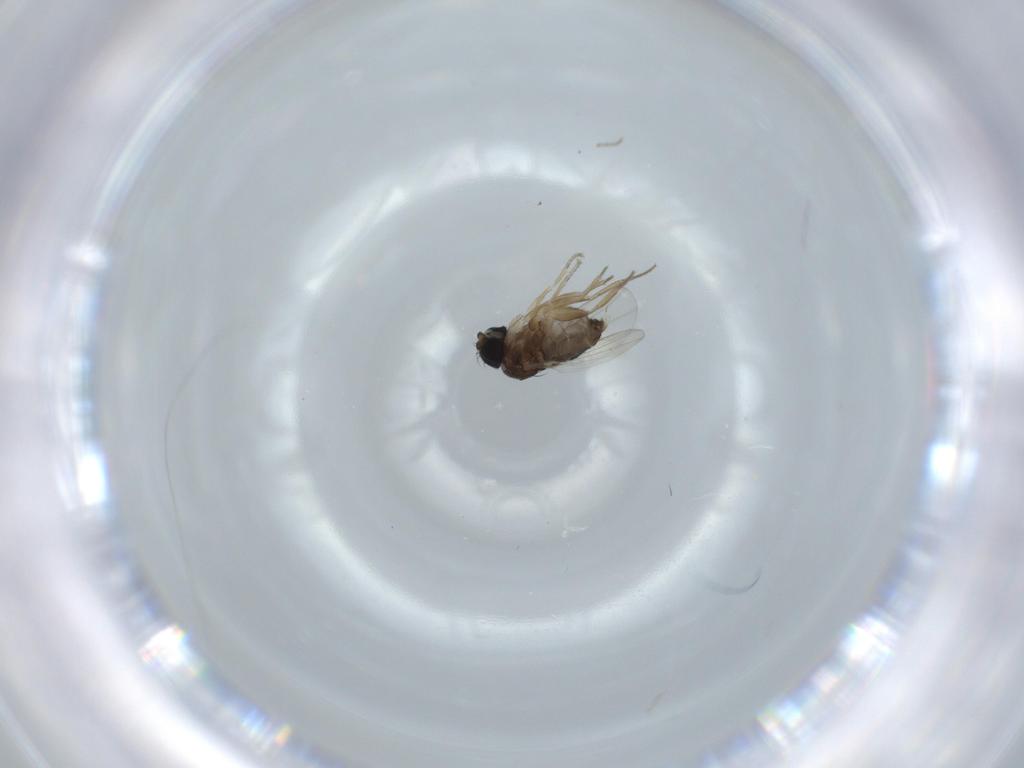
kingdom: Animalia
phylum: Arthropoda
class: Insecta
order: Diptera
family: Phoridae
